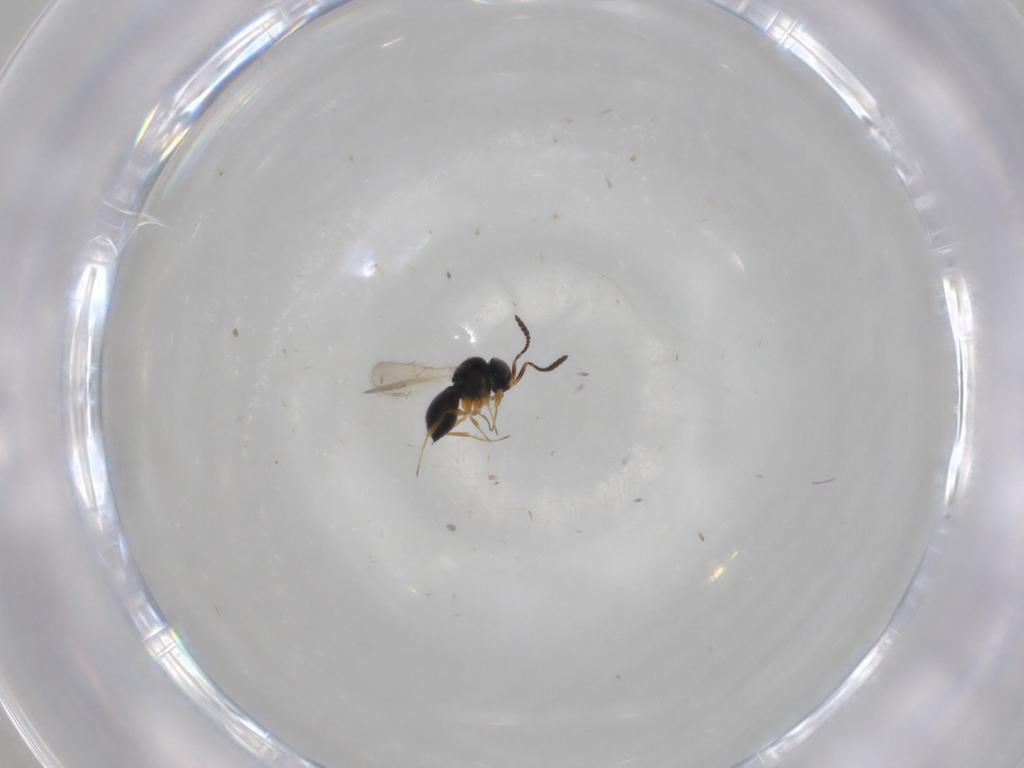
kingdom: Animalia
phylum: Arthropoda
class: Insecta
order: Hymenoptera
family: Scelionidae
